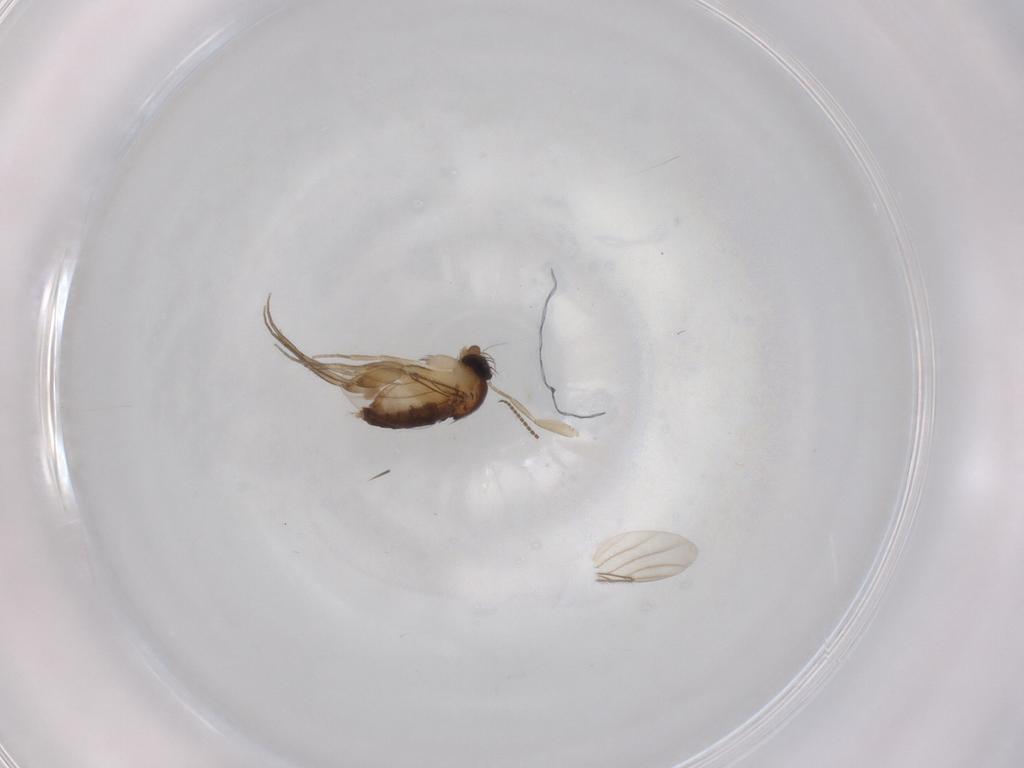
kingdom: Animalia
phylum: Arthropoda
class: Insecta
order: Diptera
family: Phoridae
